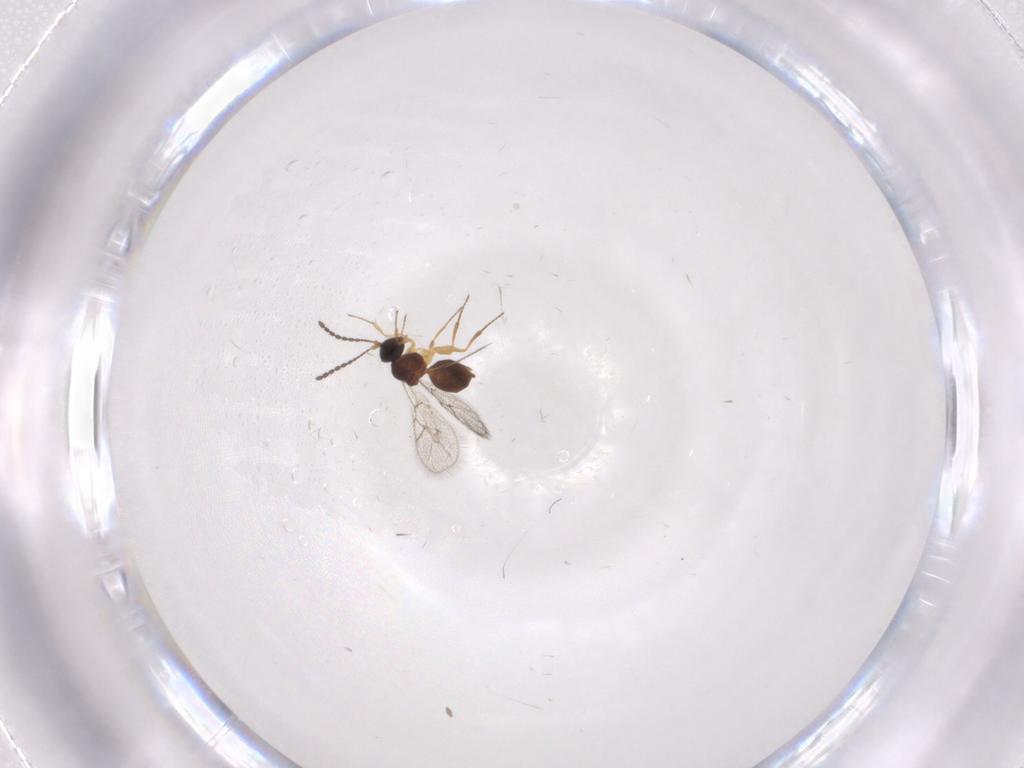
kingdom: Animalia
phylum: Arthropoda
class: Insecta
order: Hymenoptera
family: Figitidae
